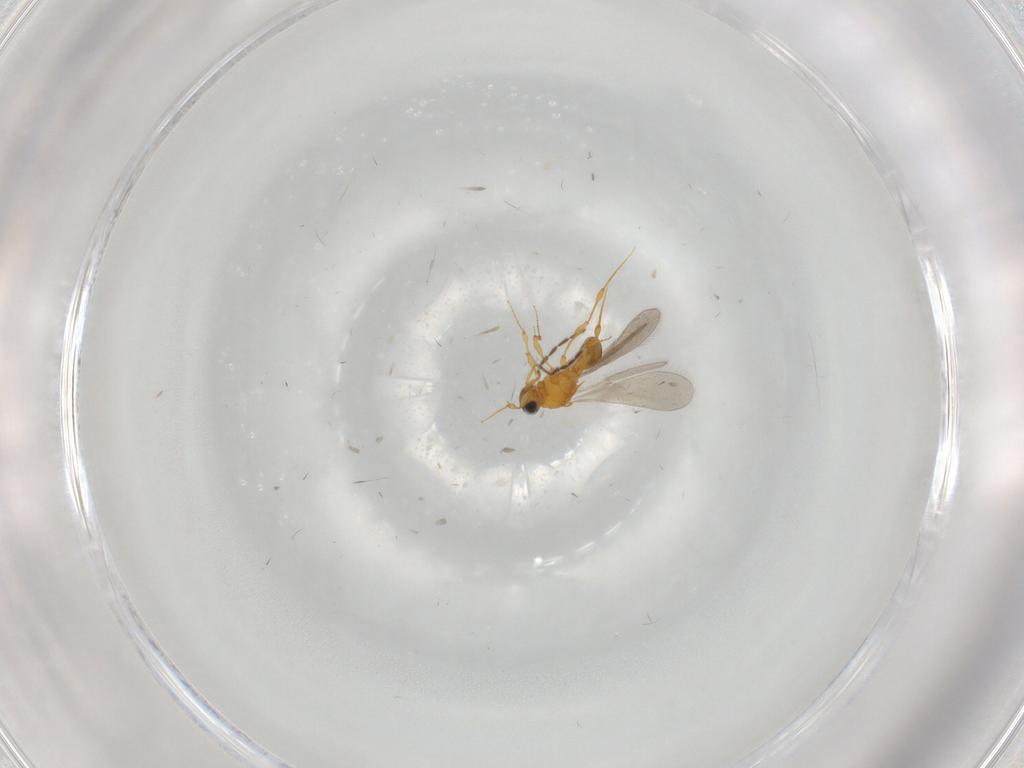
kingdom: Animalia
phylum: Arthropoda
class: Insecta
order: Hymenoptera
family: Platygastridae
